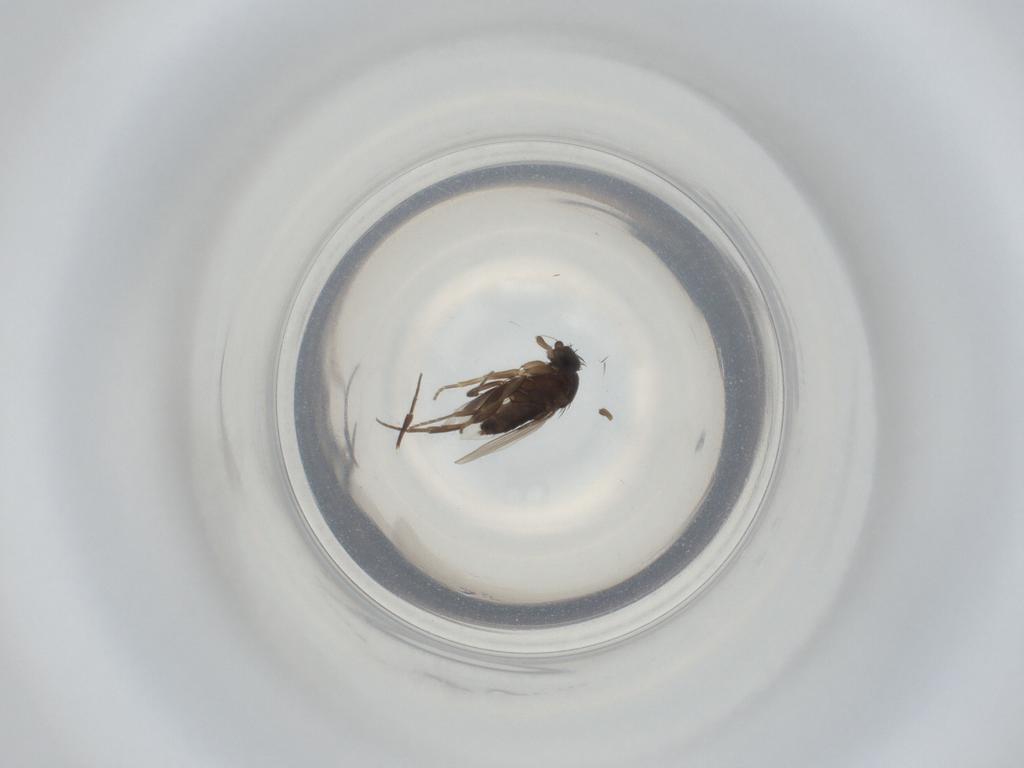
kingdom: Animalia
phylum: Arthropoda
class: Insecta
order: Diptera
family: Phoridae
